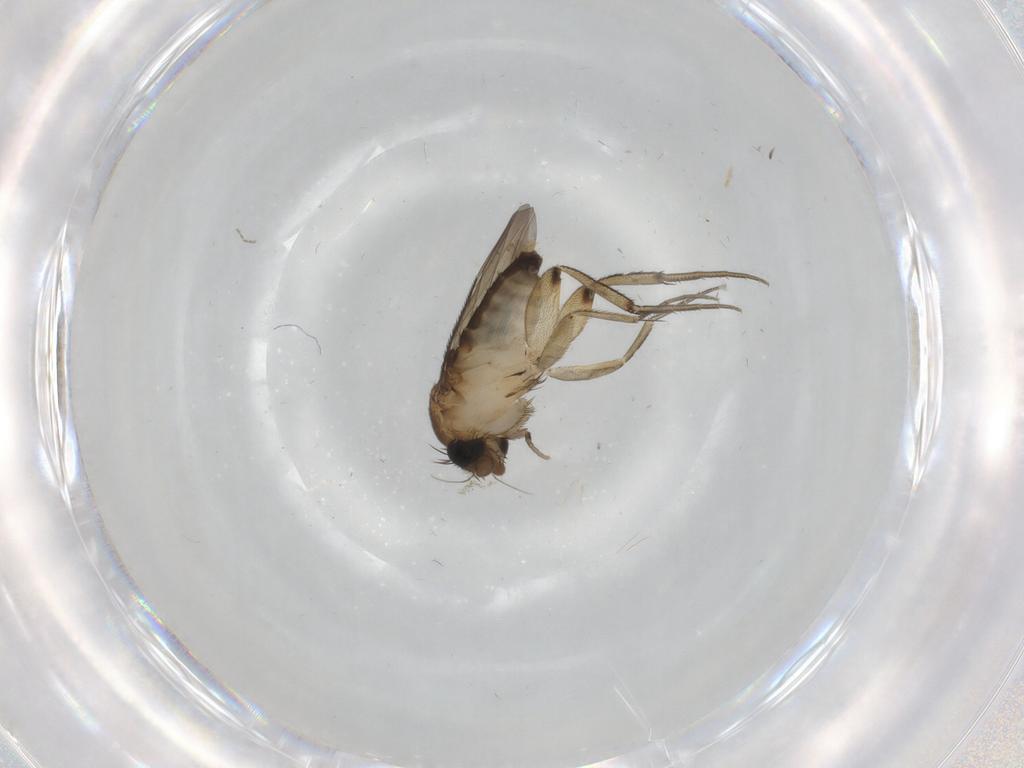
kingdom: Animalia
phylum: Arthropoda
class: Insecta
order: Diptera
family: Phoridae
